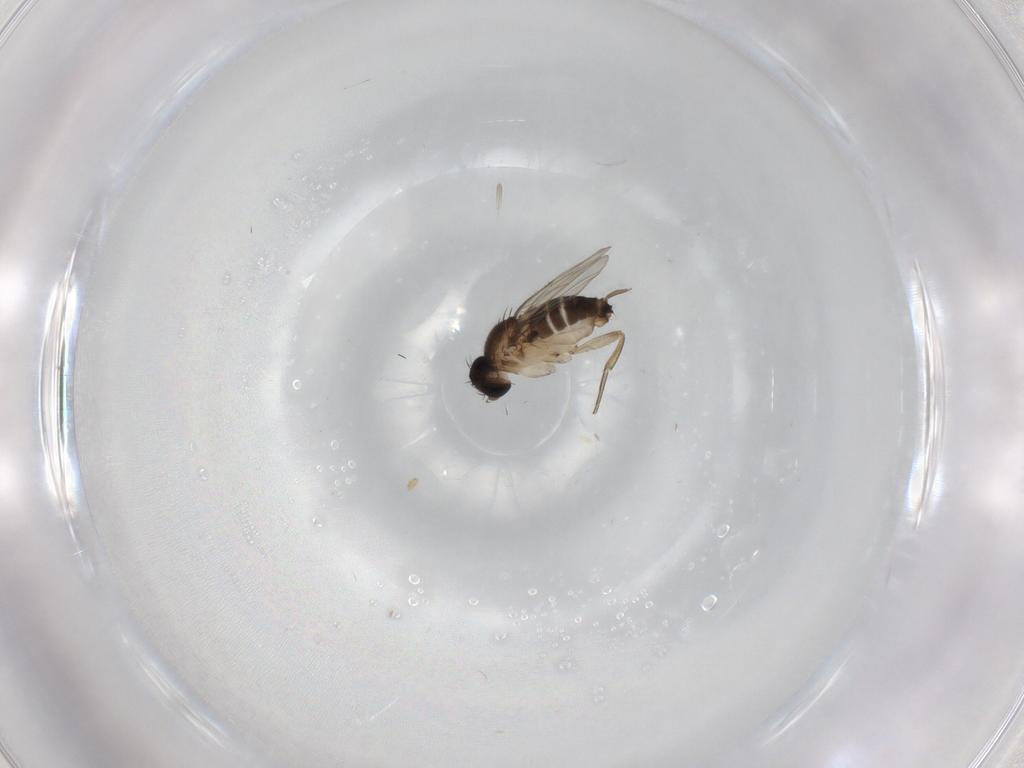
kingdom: Animalia
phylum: Arthropoda
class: Insecta
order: Diptera
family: Phoridae
